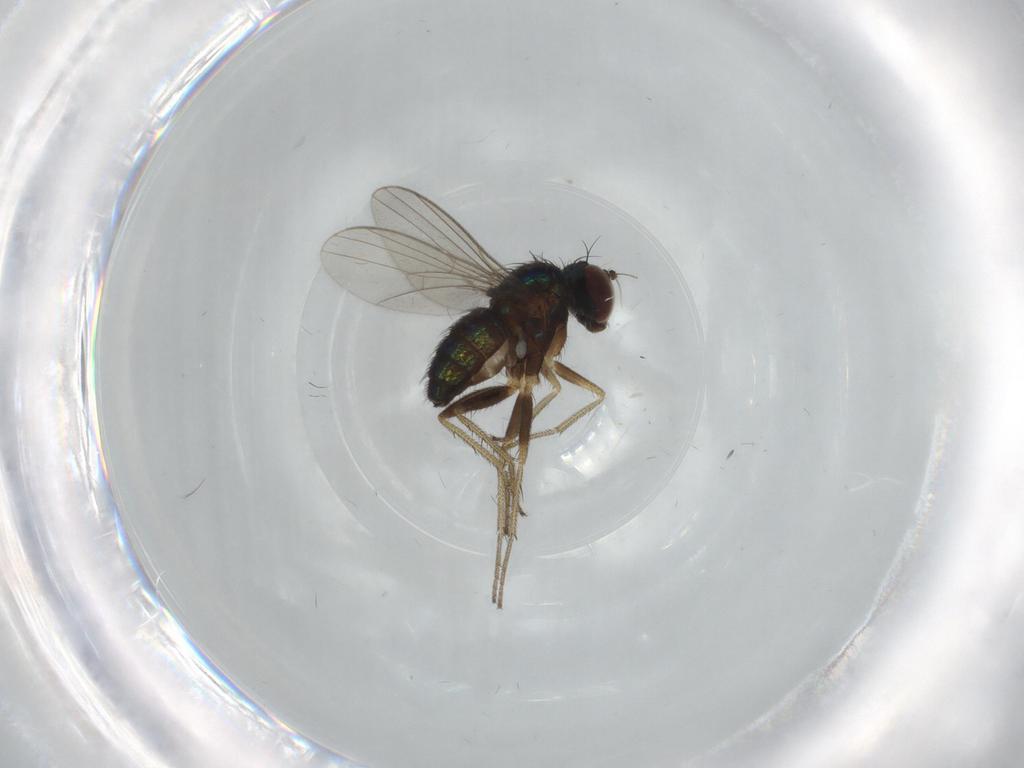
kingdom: Animalia
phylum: Arthropoda
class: Insecta
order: Diptera
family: Dolichopodidae
